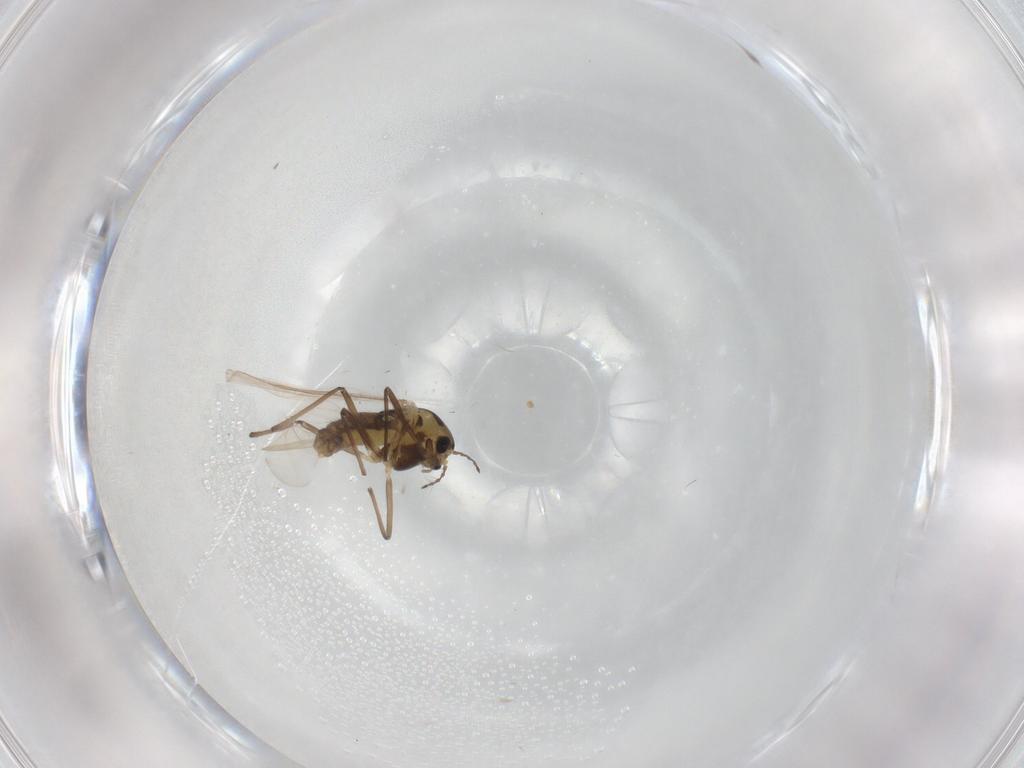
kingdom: Animalia
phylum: Arthropoda
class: Insecta
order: Diptera
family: Chironomidae
